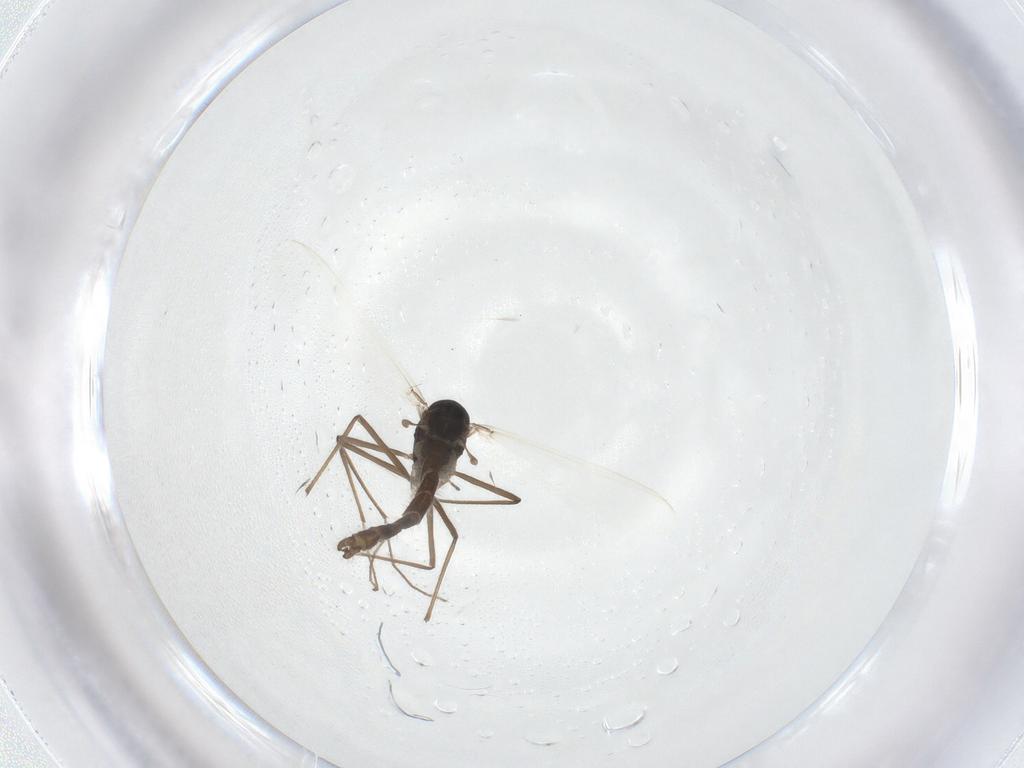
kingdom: Animalia
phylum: Arthropoda
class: Insecta
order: Diptera
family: Chironomidae
